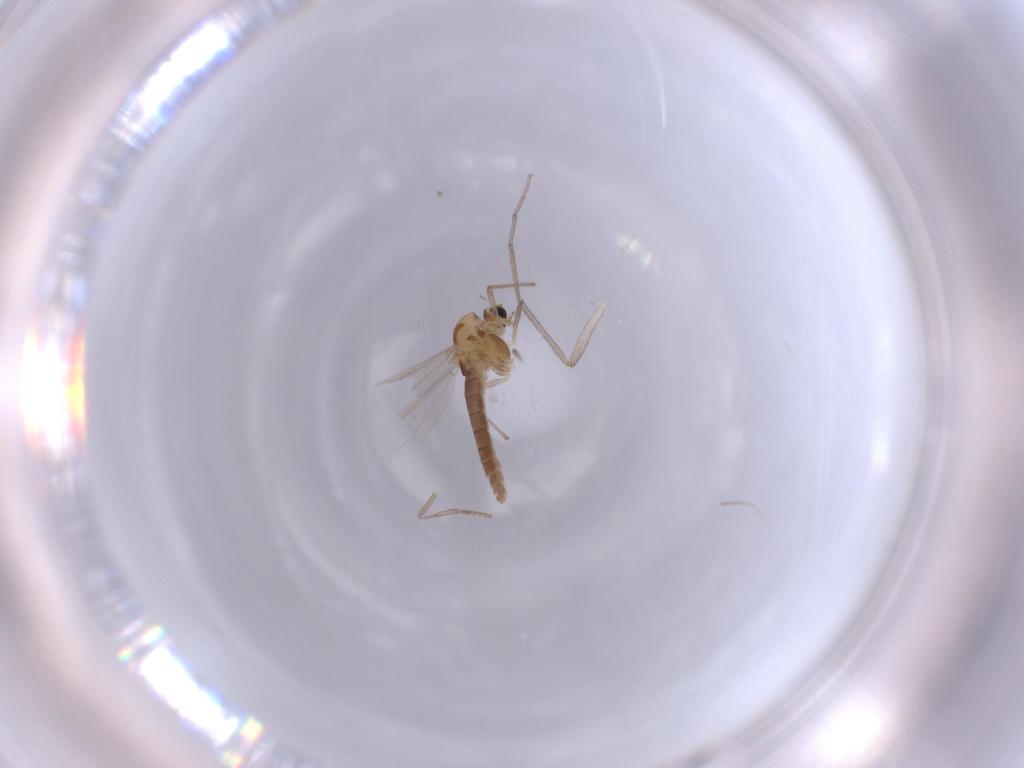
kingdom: Animalia
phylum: Arthropoda
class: Insecta
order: Diptera
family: Chironomidae
